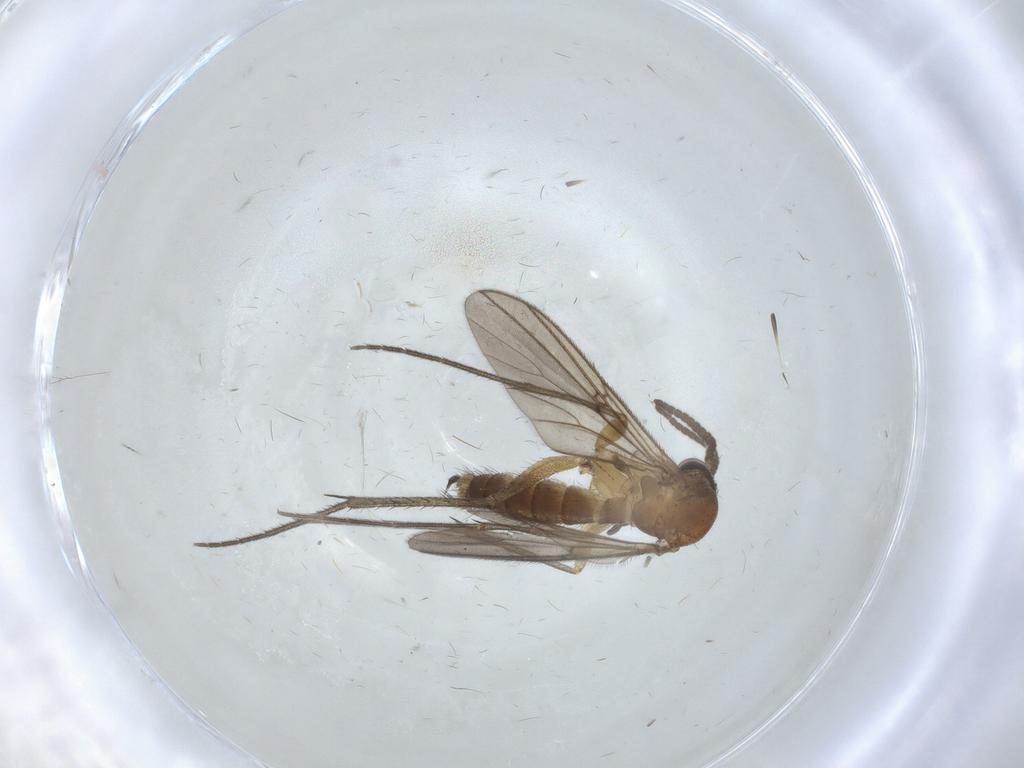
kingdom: Animalia
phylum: Arthropoda
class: Insecta
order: Diptera
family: Mycetophilidae
